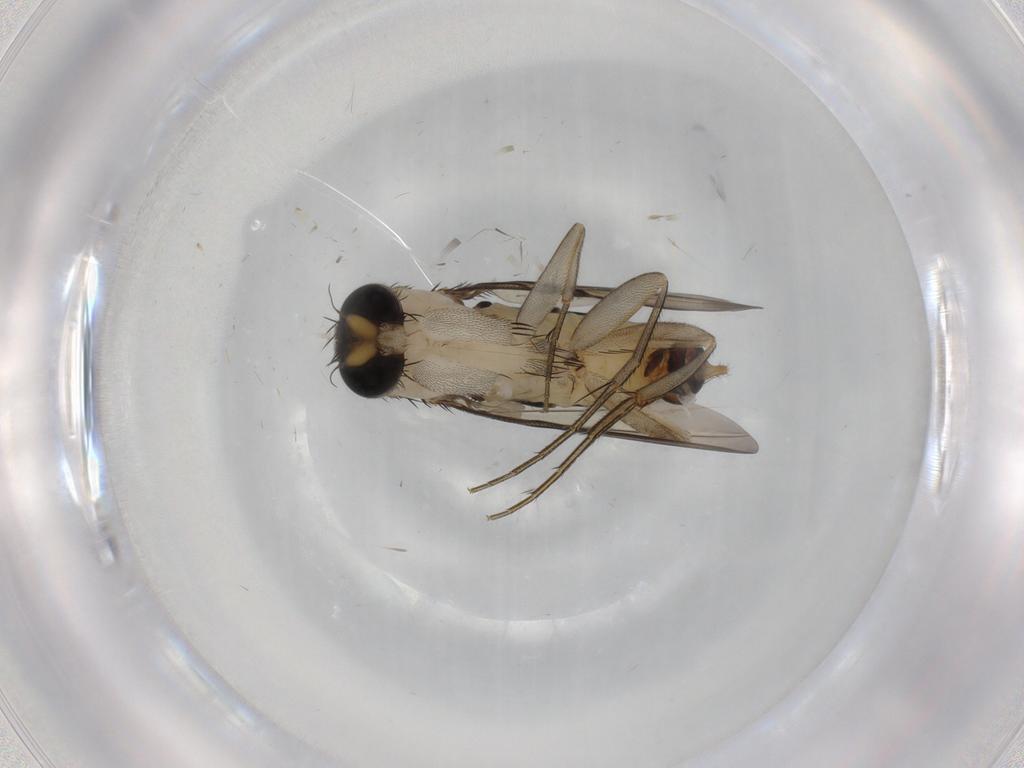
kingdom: Animalia
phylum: Arthropoda
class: Insecta
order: Diptera
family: Phoridae
